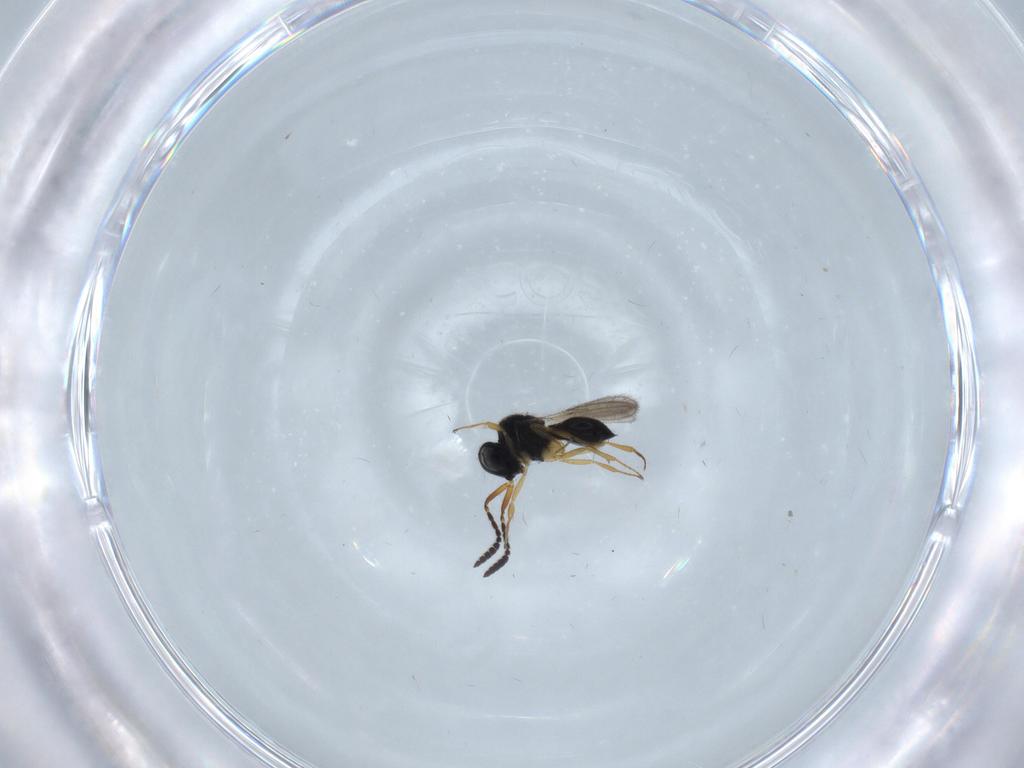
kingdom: Animalia
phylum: Arthropoda
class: Insecta
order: Hymenoptera
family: Scelionidae
